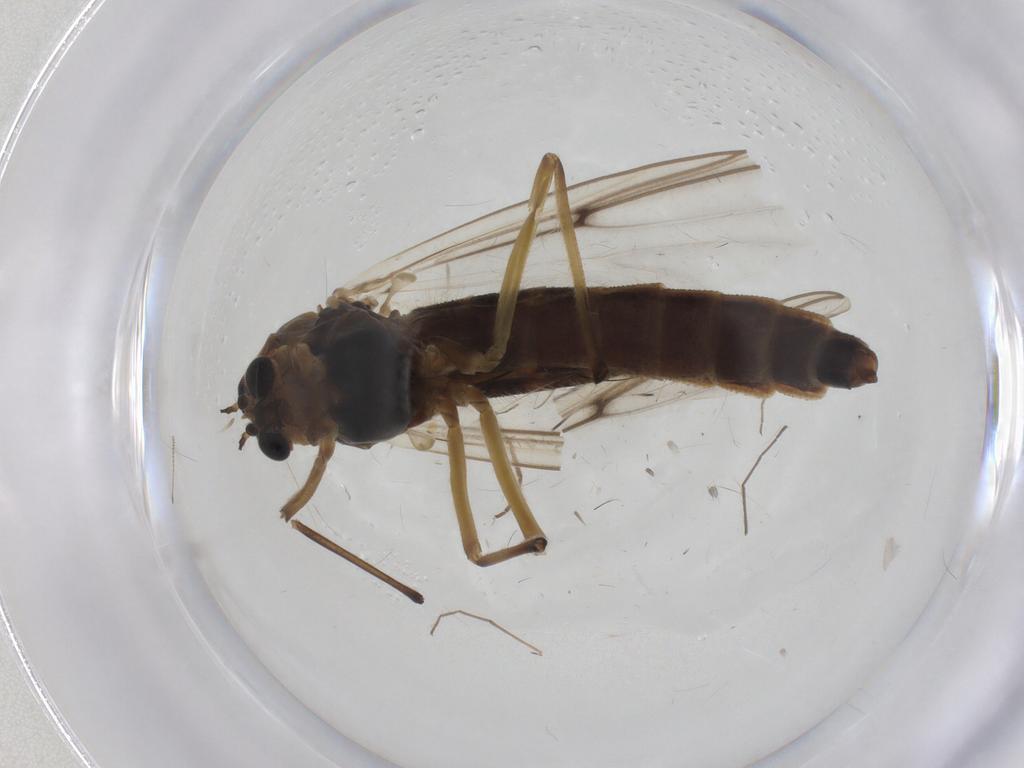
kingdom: Animalia
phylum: Arthropoda
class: Insecta
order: Diptera
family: Chironomidae
